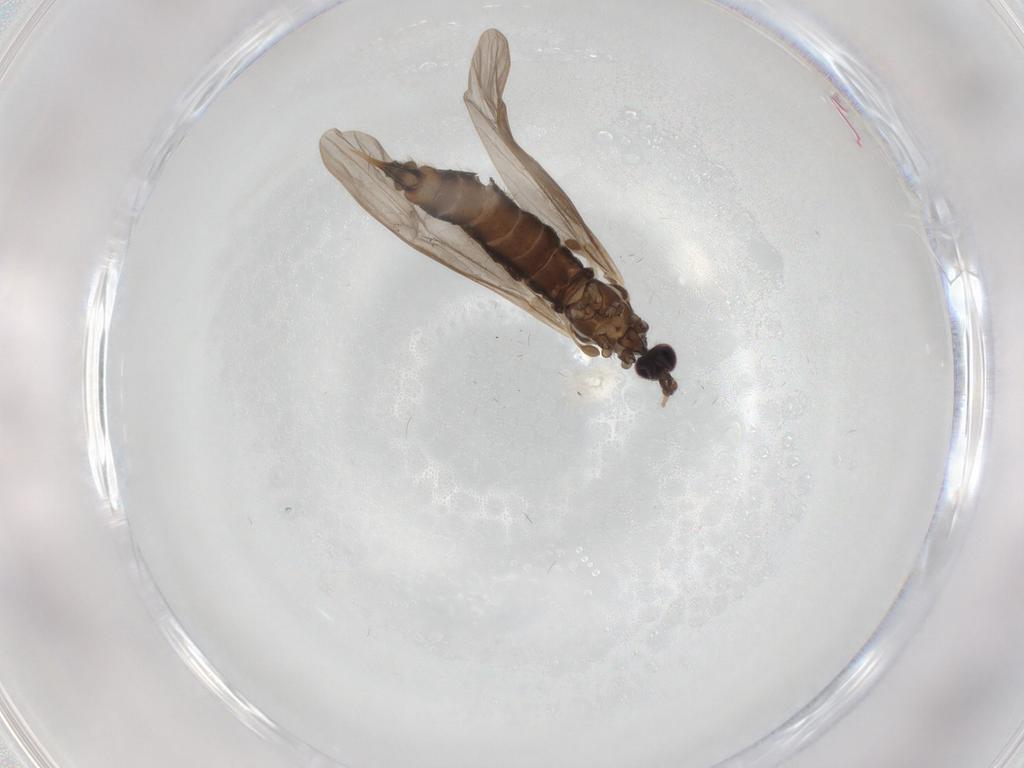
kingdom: Animalia
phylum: Arthropoda
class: Insecta
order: Diptera
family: Limoniidae
